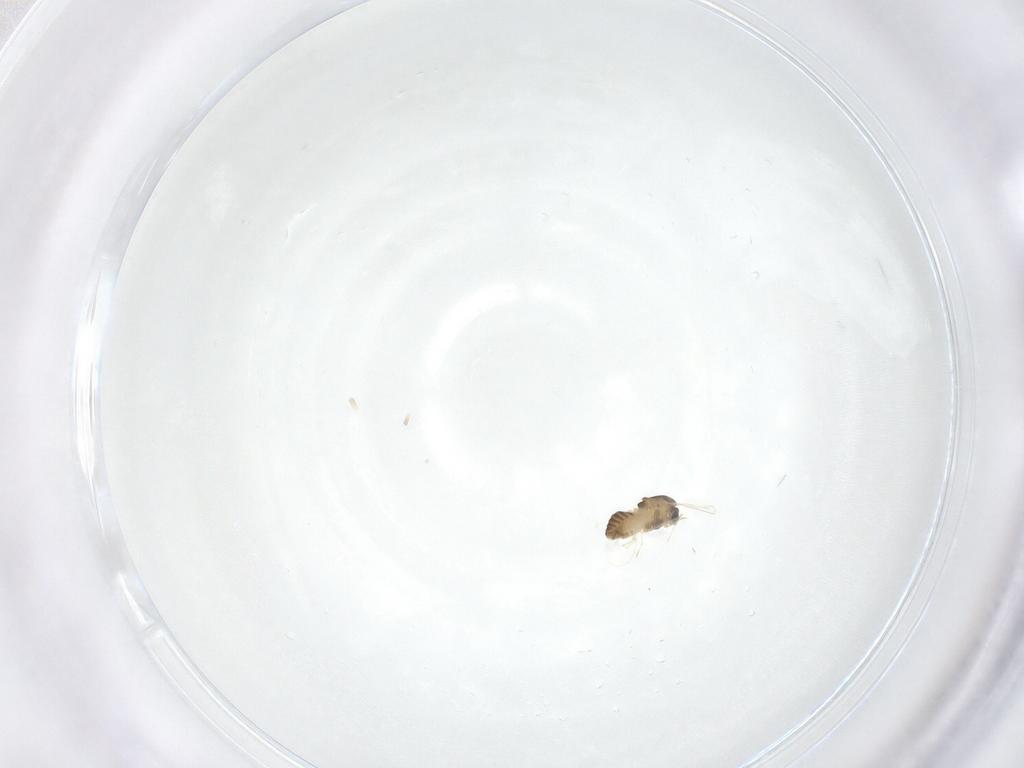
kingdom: Animalia
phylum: Arthropoda
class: Insecta
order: Diptera
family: Chironomidae
